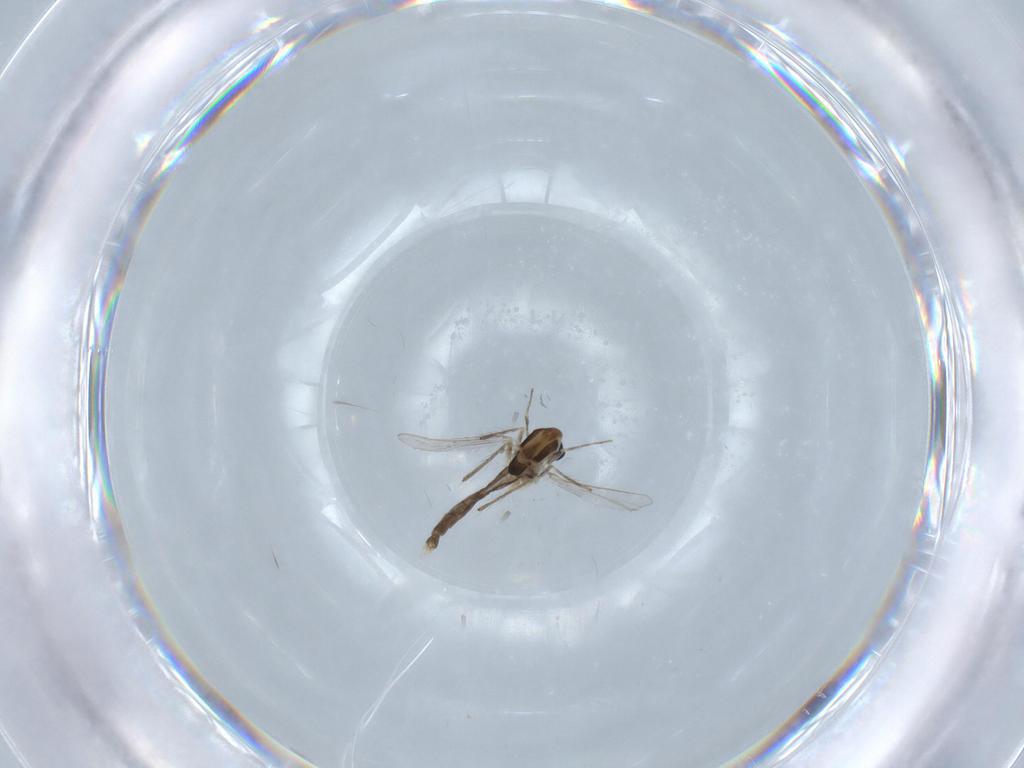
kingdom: Animalia
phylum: Arthropoda
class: Insecta
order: Diptera
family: Chironomidae
